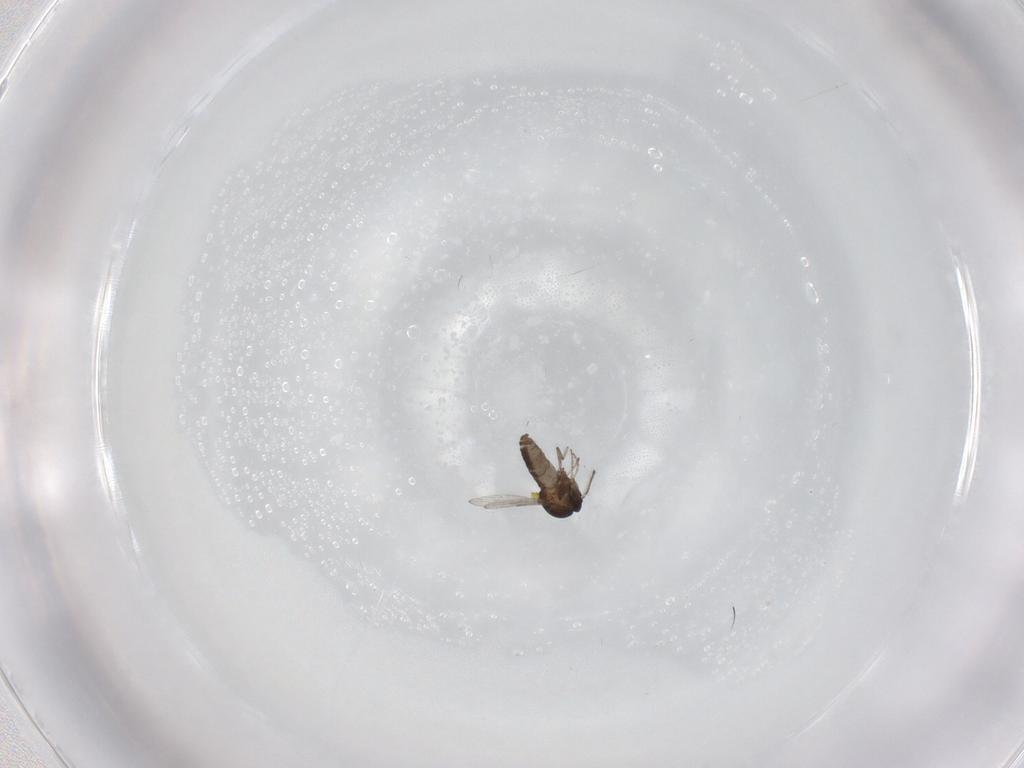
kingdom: Animalia
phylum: Arthropoda
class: Insecta
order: Diptera
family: Ceratopogonidae
